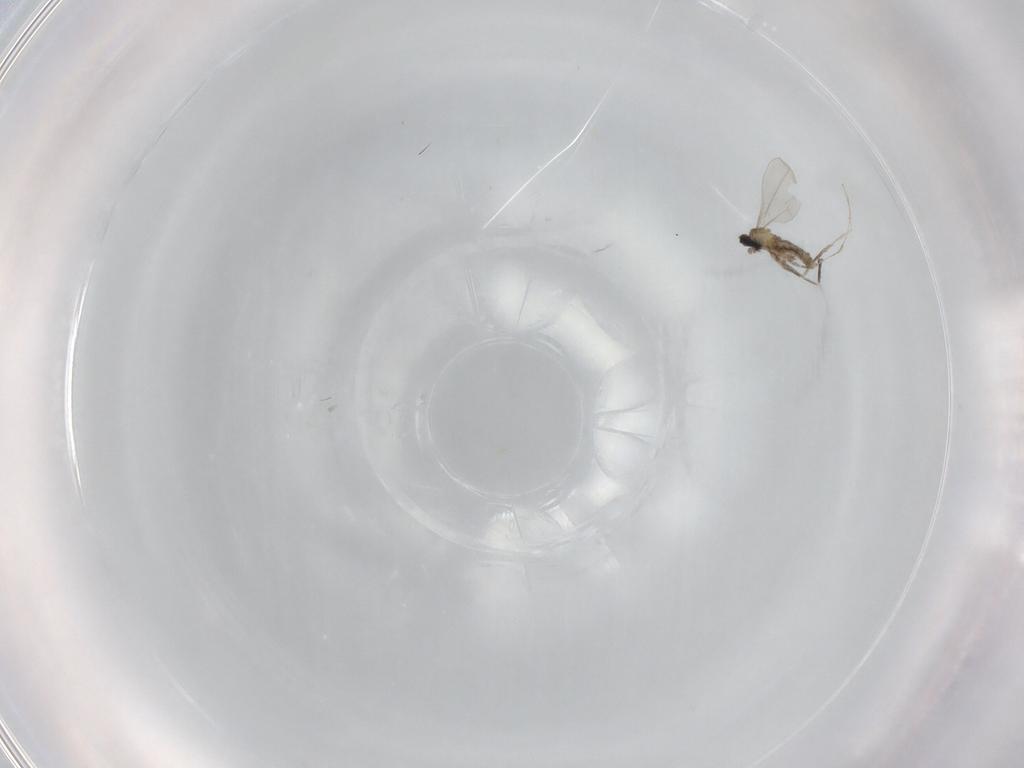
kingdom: Animalia
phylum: Arthropoda
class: Insecta
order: Diptera
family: Cecidomyiidae
